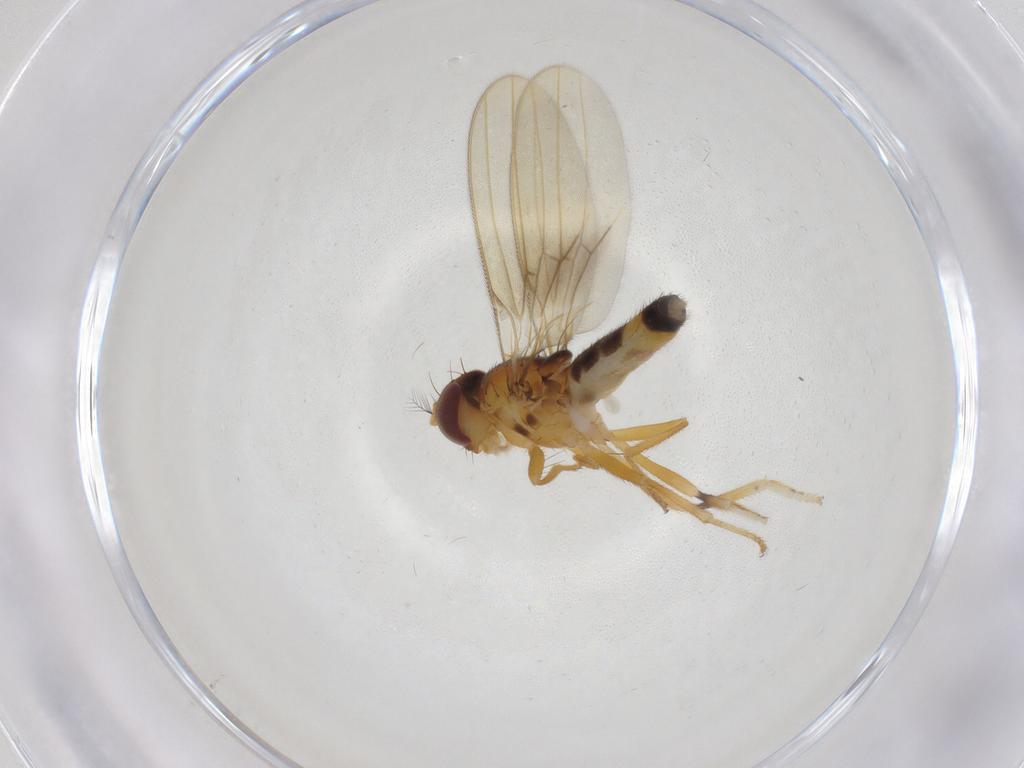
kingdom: Animalia
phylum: Arthropoda
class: Insecta
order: Diptera
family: Periscelididae
